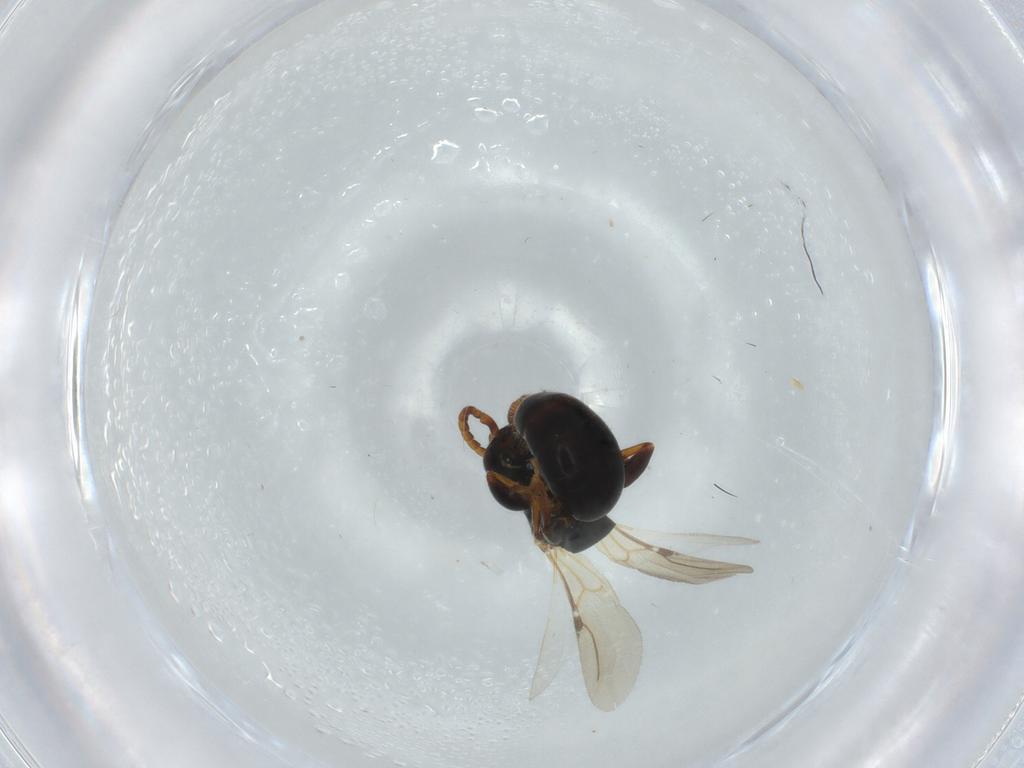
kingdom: Animalia
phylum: Arthropoda
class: Insecta
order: Hymenoptera
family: Bethylidae
